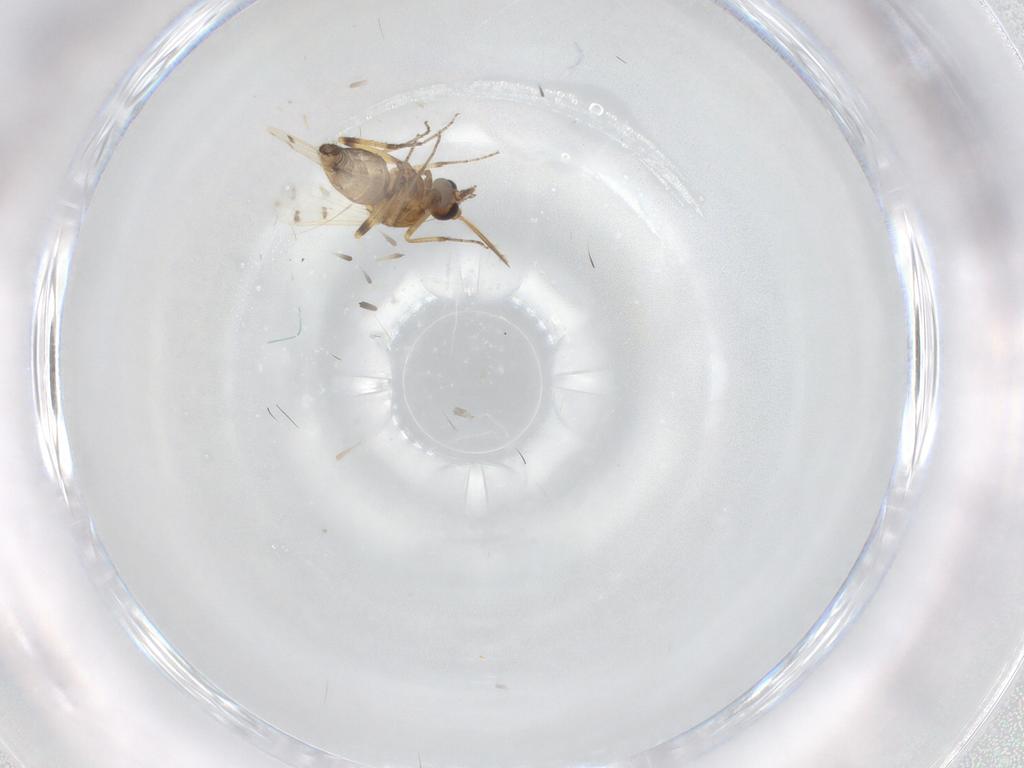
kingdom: Animalia
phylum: Arthropoda
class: Insecta
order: Diptera
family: Ceratopogonidae
